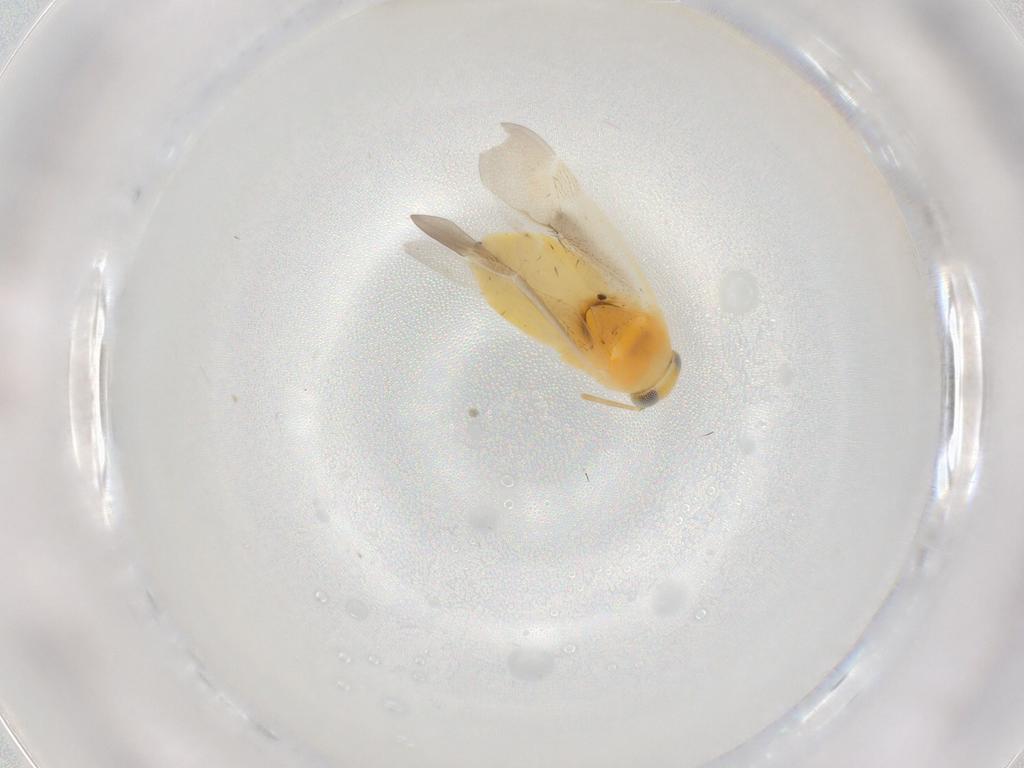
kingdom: Animalia
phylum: Arthropoda
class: Insecta
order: Hemiptera
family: Miridae
